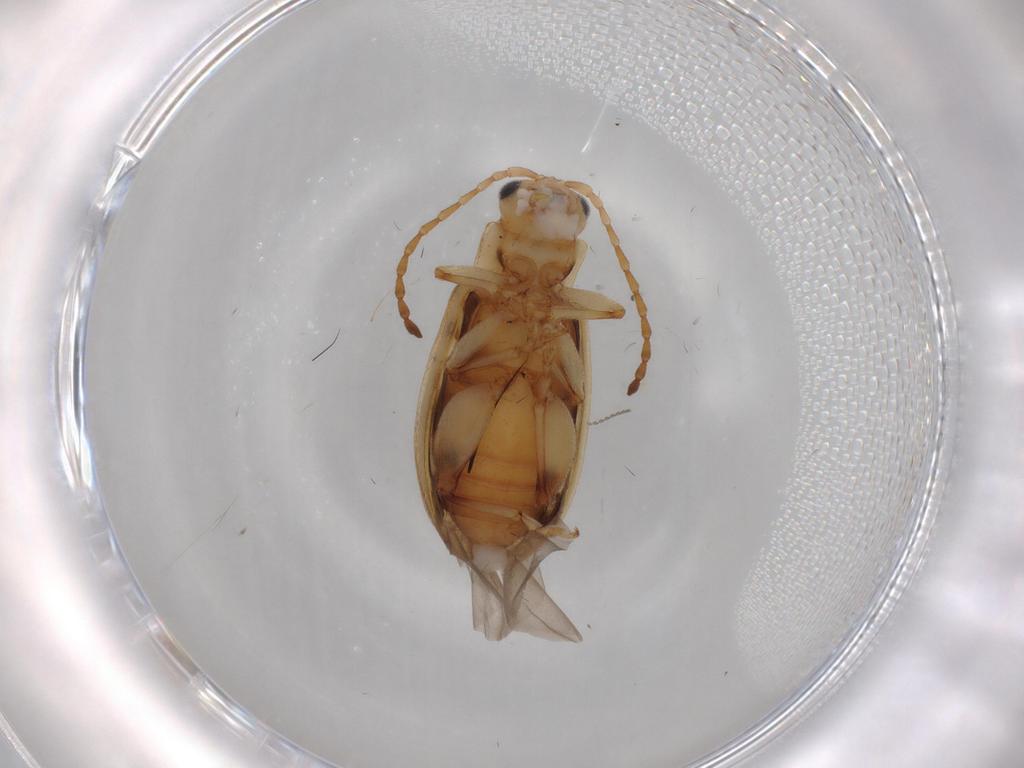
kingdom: Animalia
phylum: Arthropoda
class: Insecta
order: Coleoptera
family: Chrysomelidae
